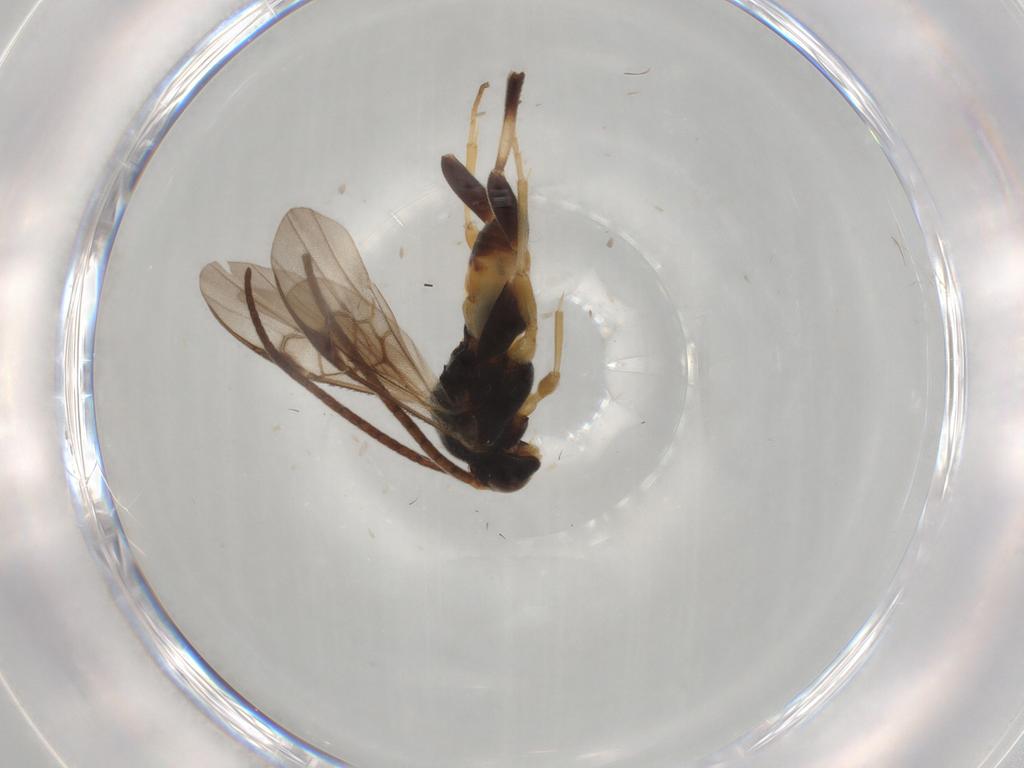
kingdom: Animalia
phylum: Arthropoda
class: Insecta
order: Hymenoptera
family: Braconidae
